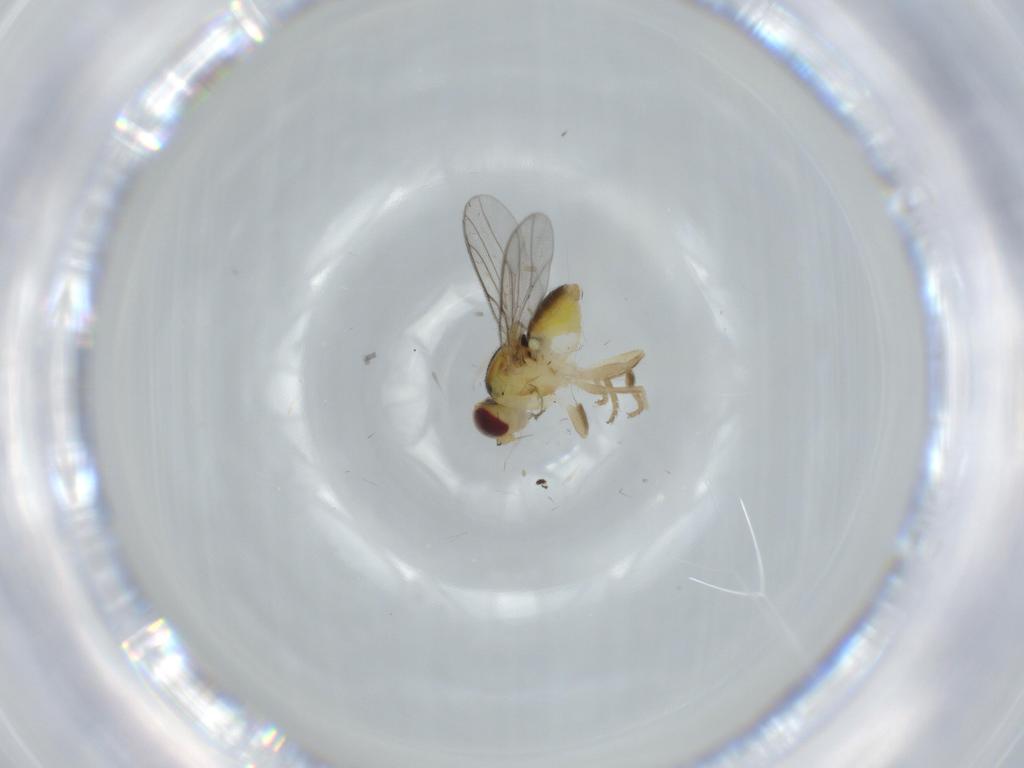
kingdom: Animalia
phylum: Arthropoda
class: Insecta
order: Diptera
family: Chloropidae
